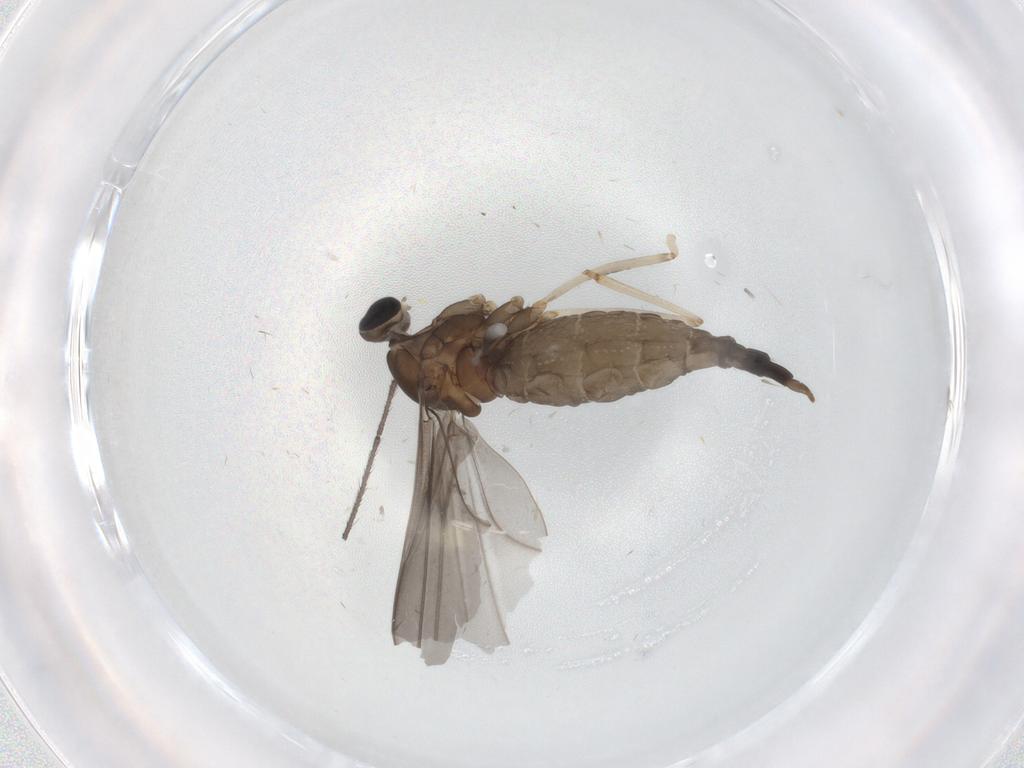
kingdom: Animalia
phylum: Arthropoda
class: Insecta
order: Diptera
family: Cecidomyiidae
